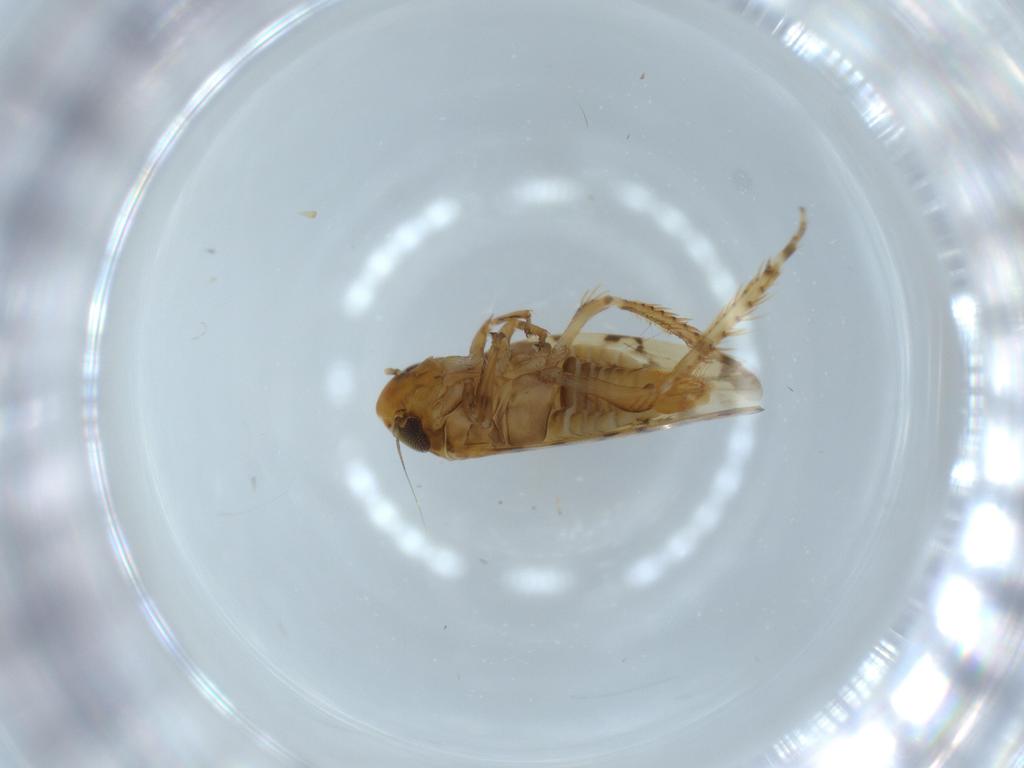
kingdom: Animalia
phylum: Arthropoda
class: Insecta
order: Hemiptera
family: Cicadellidae
